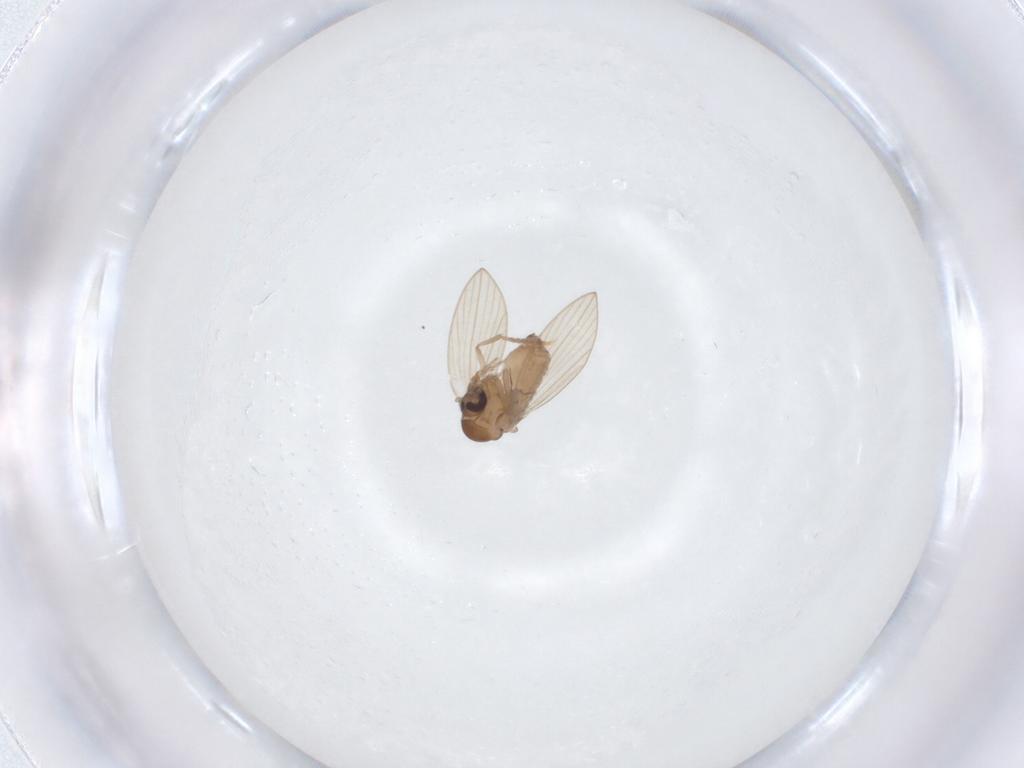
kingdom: Animalia
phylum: Arthropoda
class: Insecta
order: Diptera
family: Psychodidae
